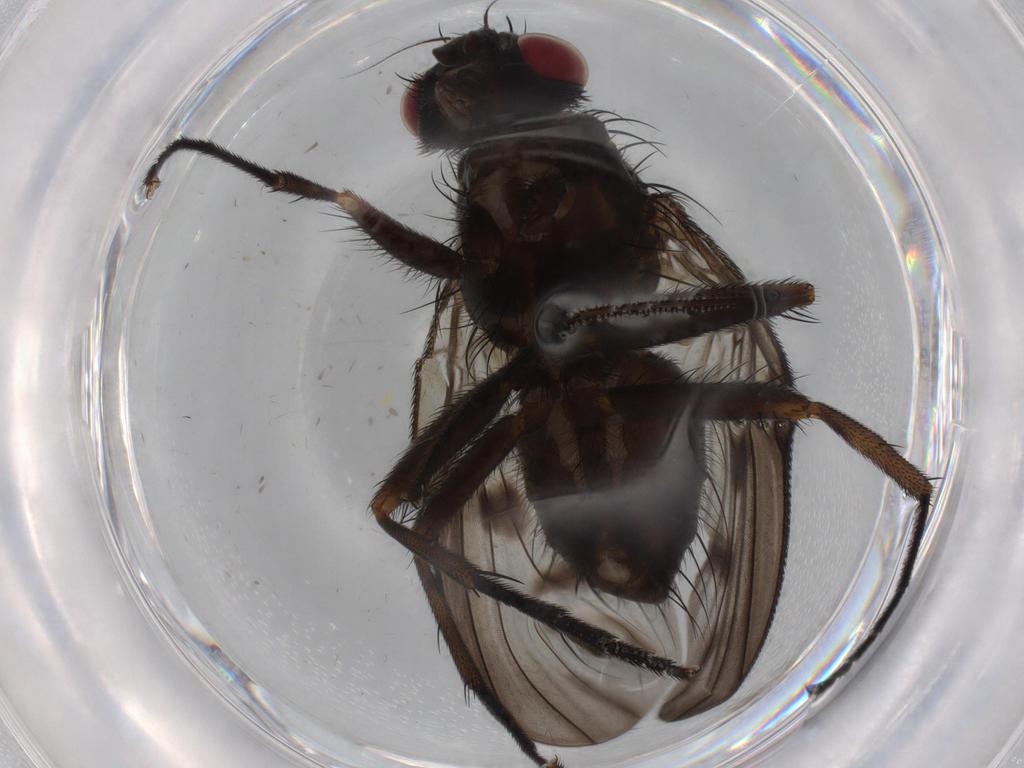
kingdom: Animalia
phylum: Arthropoda
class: Insecta
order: Diptera
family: Muscidae
